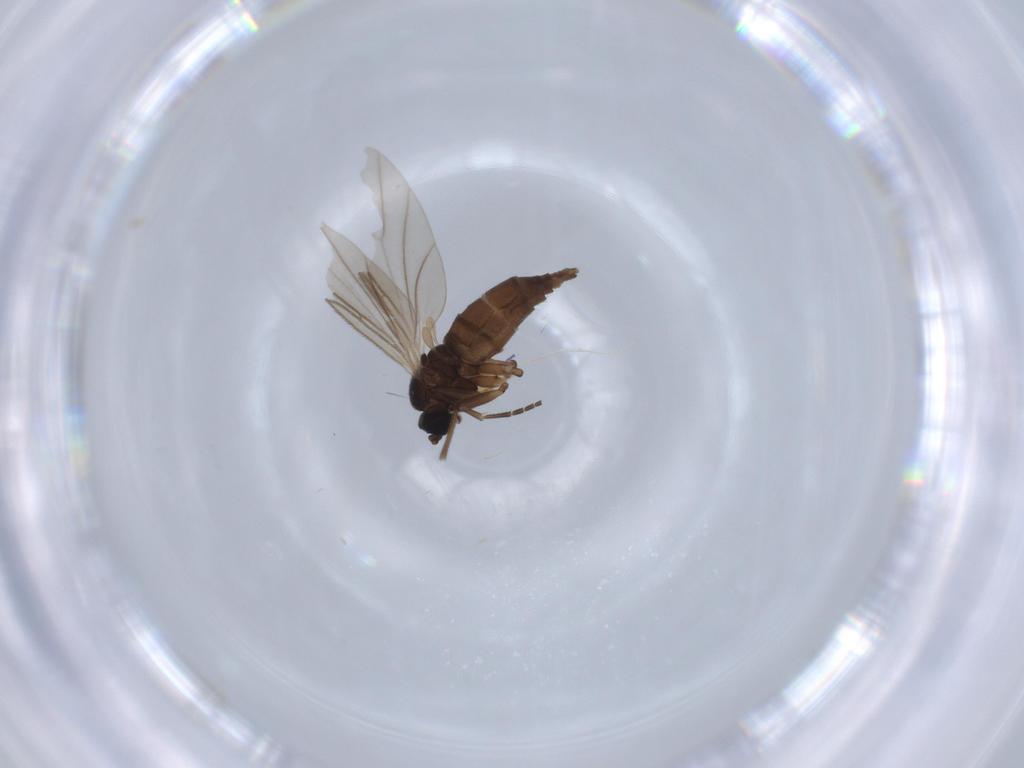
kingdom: Animalia
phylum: Arthropoda
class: Insecta
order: Diptera
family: Sciaridae
